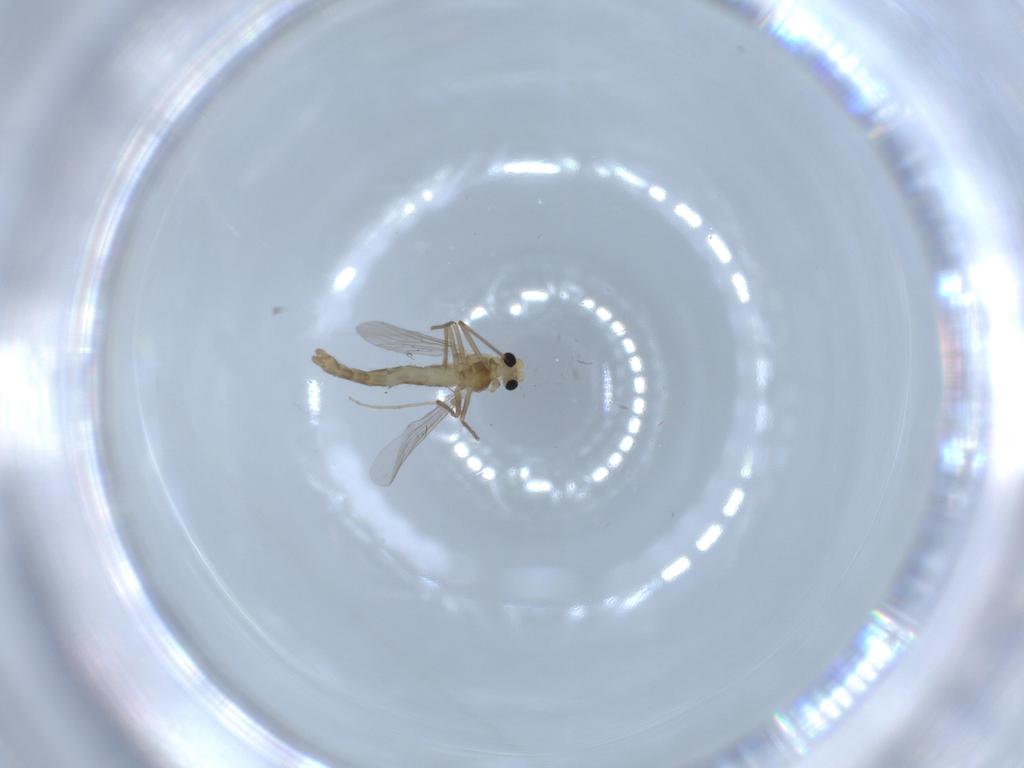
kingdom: Animalia
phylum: Arthropoda
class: Insecta
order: Diptera
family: Chironomidae
